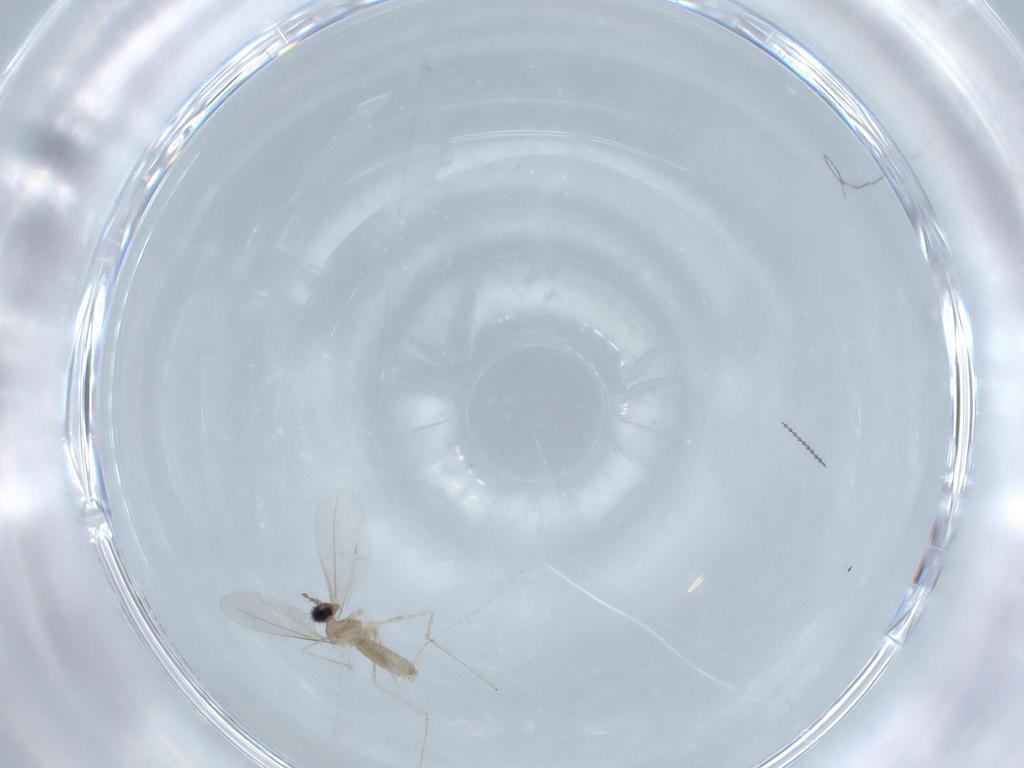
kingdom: Animalia
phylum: Arthropoda
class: Insecta
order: Diptera
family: Cecidomyiidae
